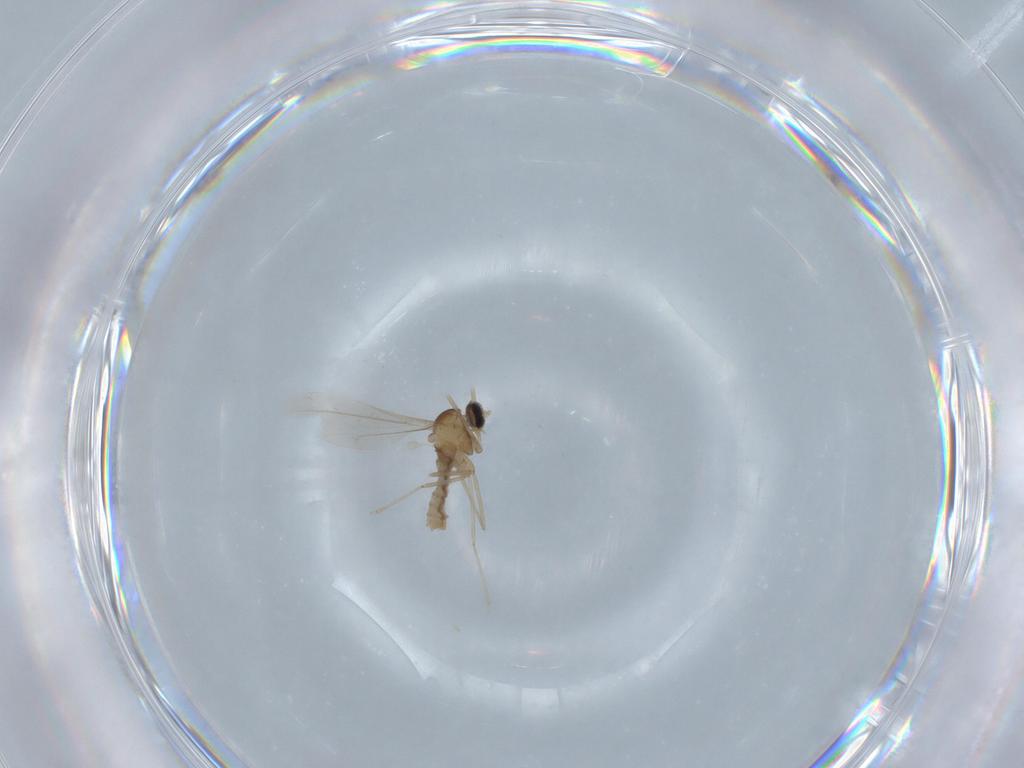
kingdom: Animalia
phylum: Arthropoda
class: Insecta
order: Diptera
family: Cecidomyiidae
